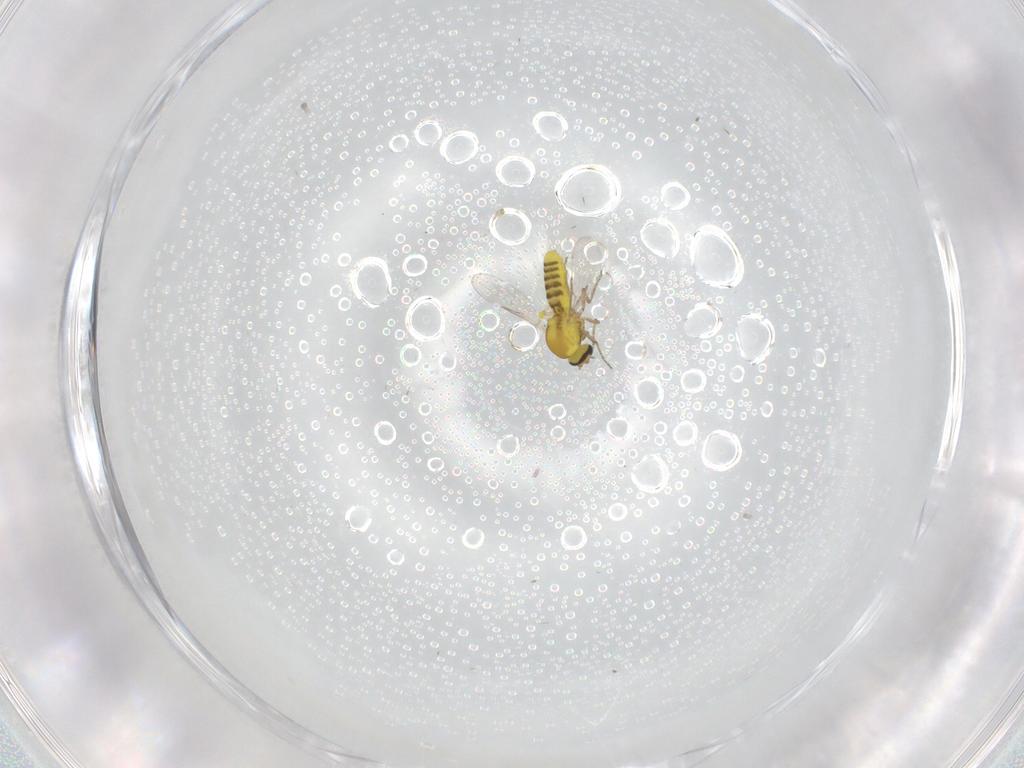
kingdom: Animalia
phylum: Arthropoda
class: Insecta
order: Diptera
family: Ceratopogonidae
